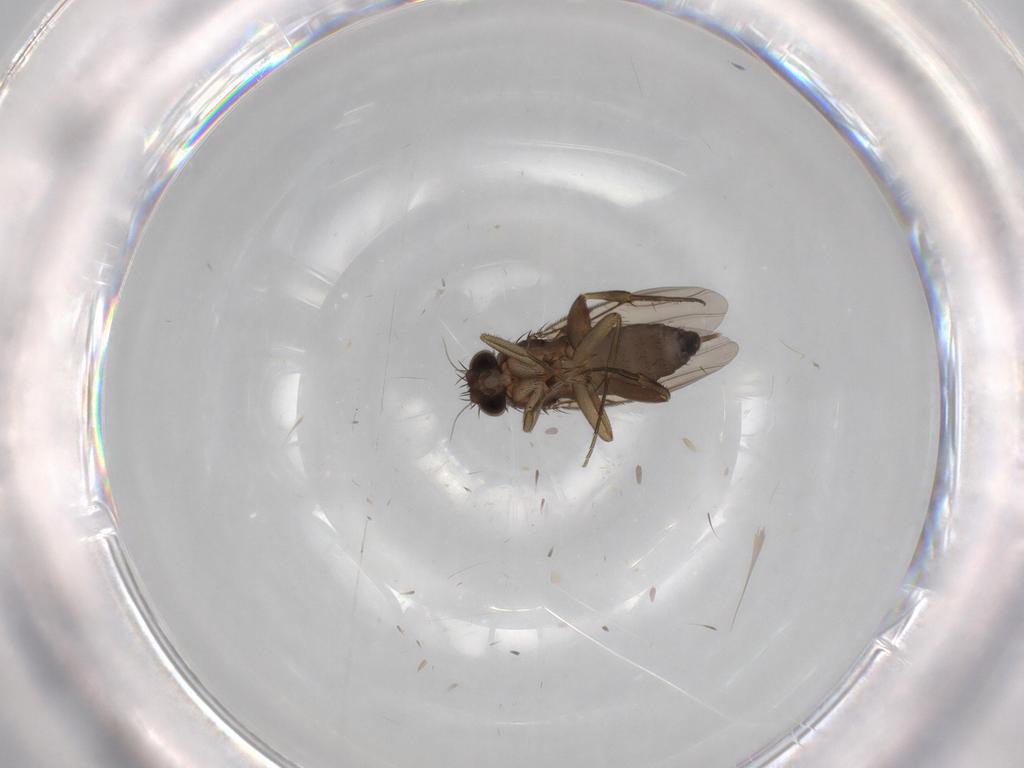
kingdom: Animalia
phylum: Arthropoda
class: Insecta
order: Diptera
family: Phoridae
